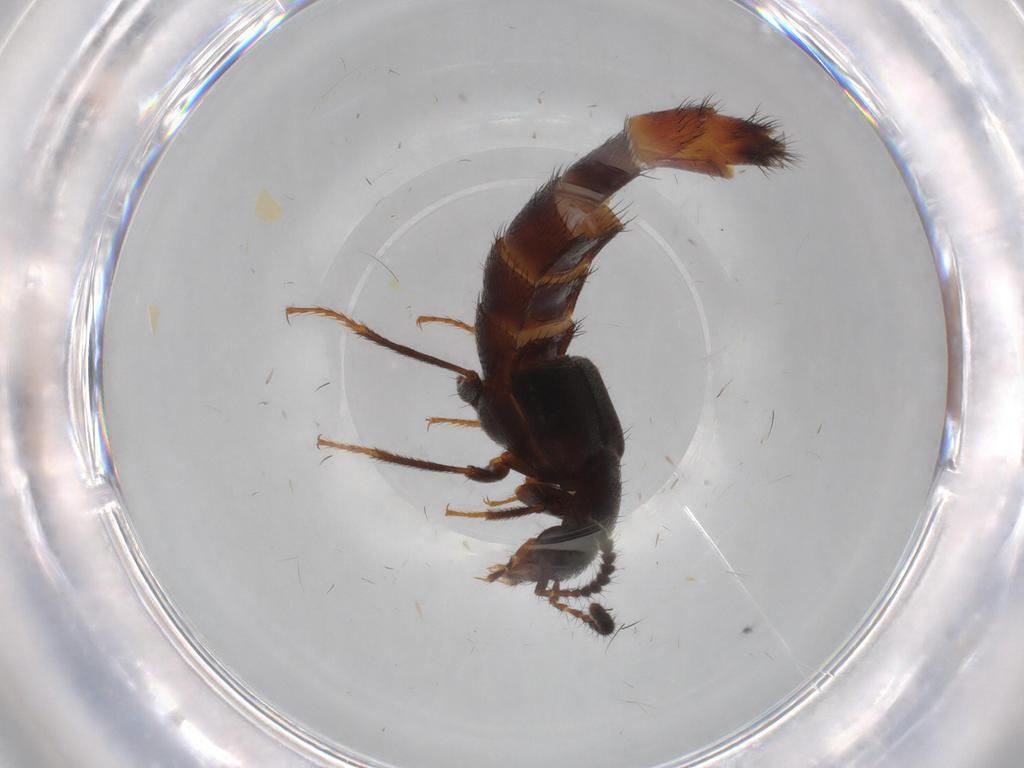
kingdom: Animalia
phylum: Arthropoda
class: Insecta
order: Coleoptera
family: Staphylinidae
